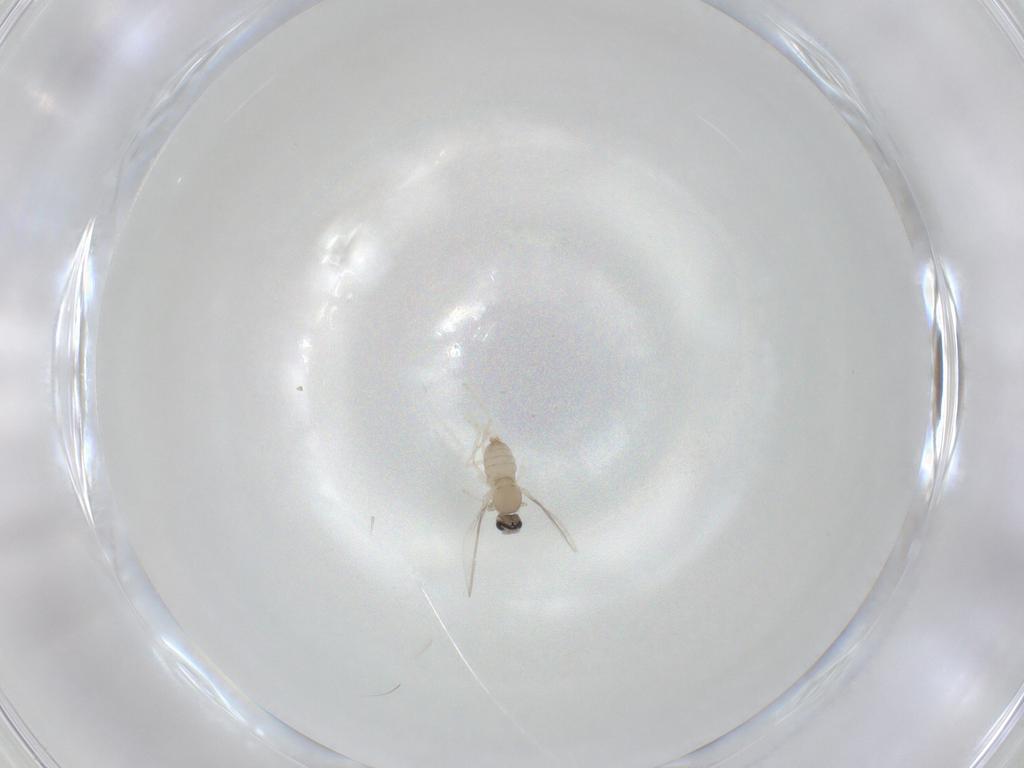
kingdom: Animalia
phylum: Arthropoda
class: Insecta
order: Diptera
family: Cecidomyiidae
